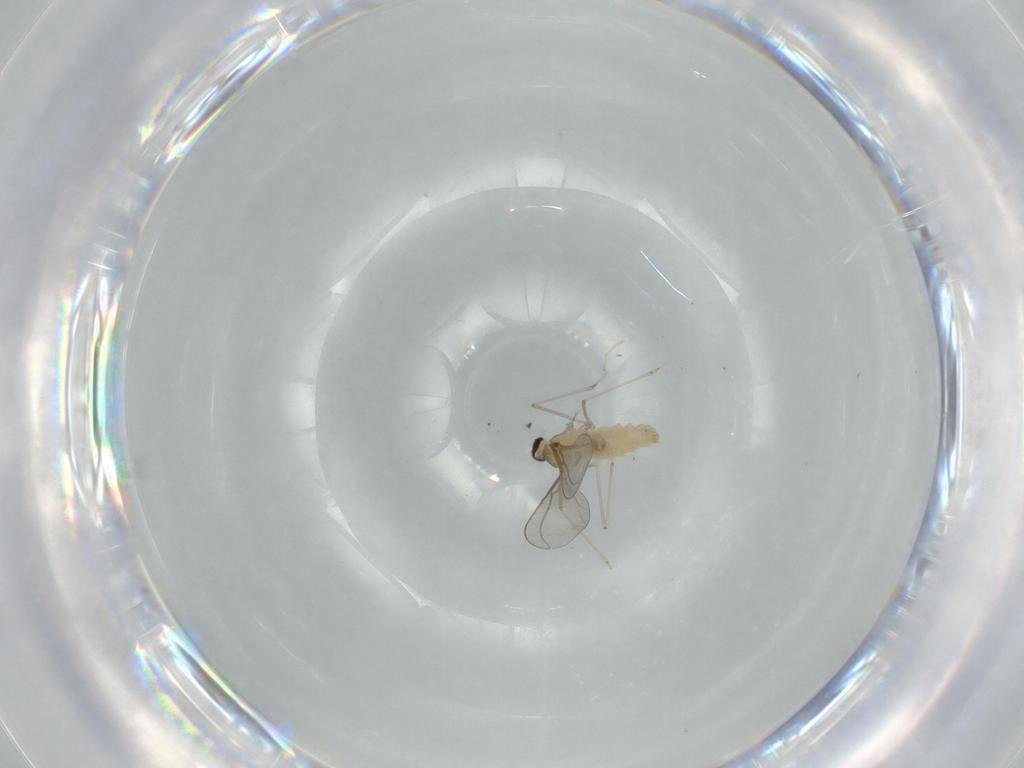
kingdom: Animalia
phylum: Arthropoda
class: Insecta
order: Diptera
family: Cecidomyiidae
